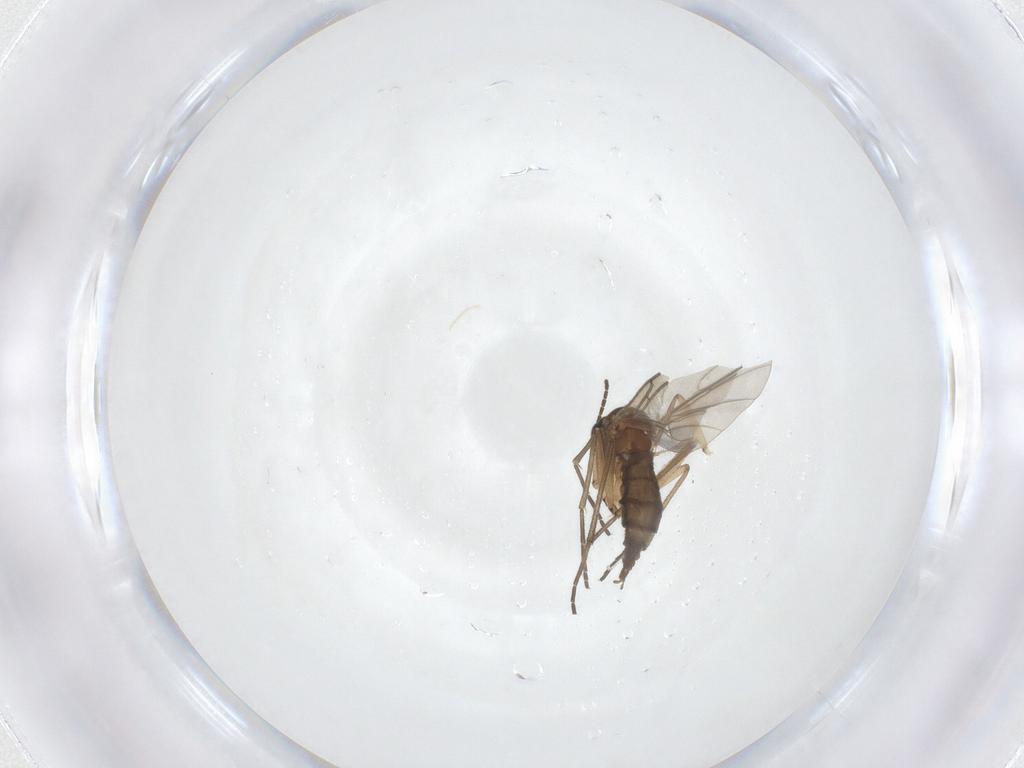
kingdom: Animalia
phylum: Arthropoda
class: Insecta
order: Diptera
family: Sciaridae
